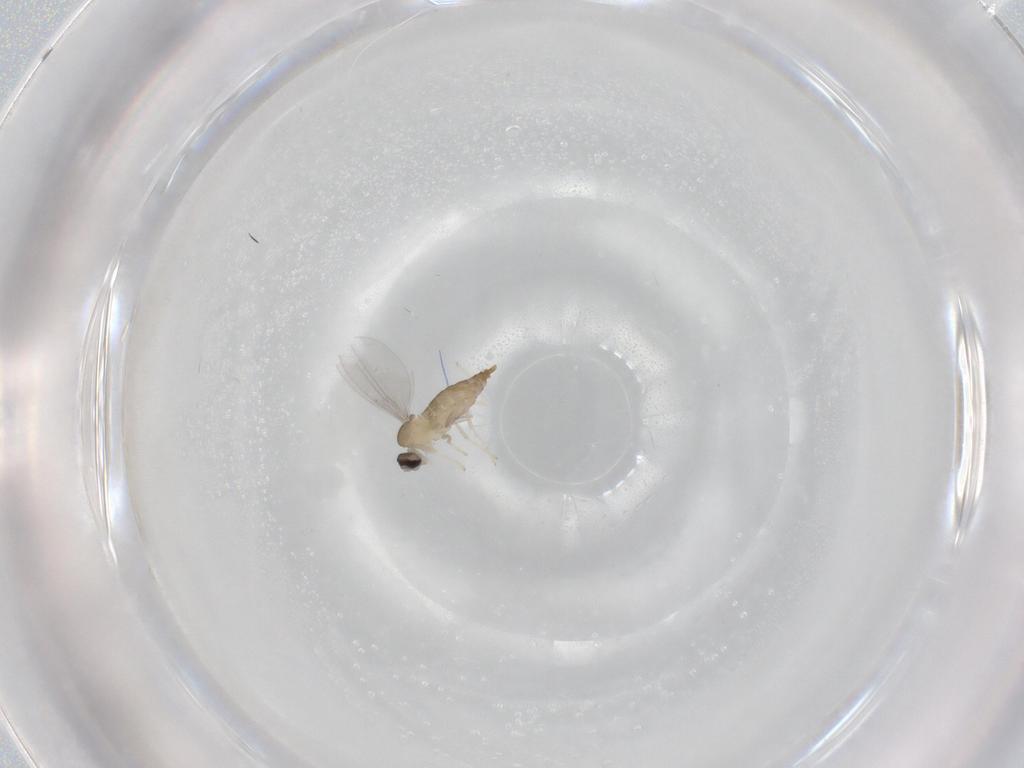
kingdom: Animalia
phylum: Arthropoda
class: Insecta
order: Diptera
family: Cecidomyiidae
